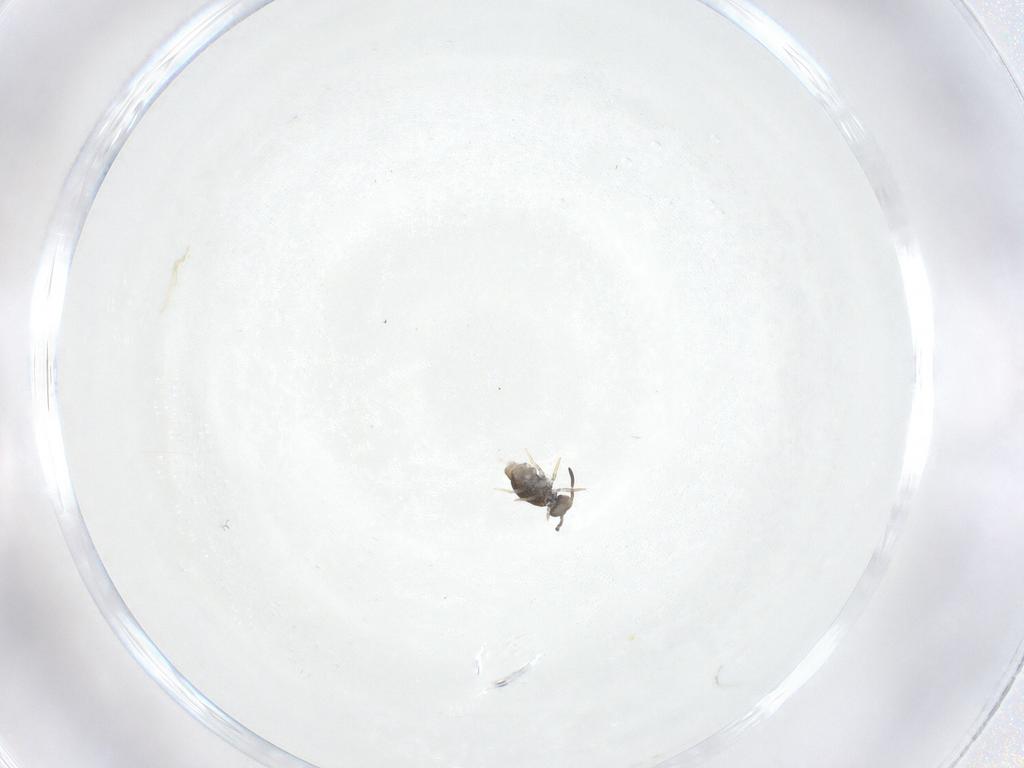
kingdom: Animalia
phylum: Arthropoda
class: Collembola
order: Symphypleona
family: Katiannidae
